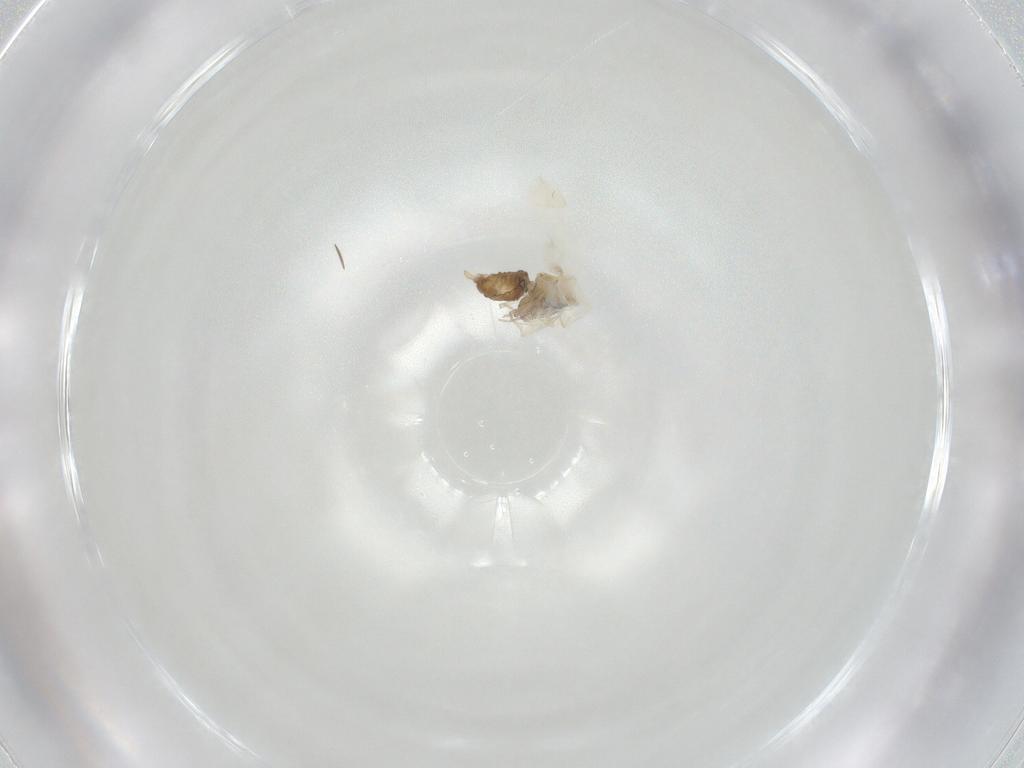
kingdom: Animalia
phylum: Arthropoda
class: Insecta
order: Hemiptera
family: Aleyrodidae
